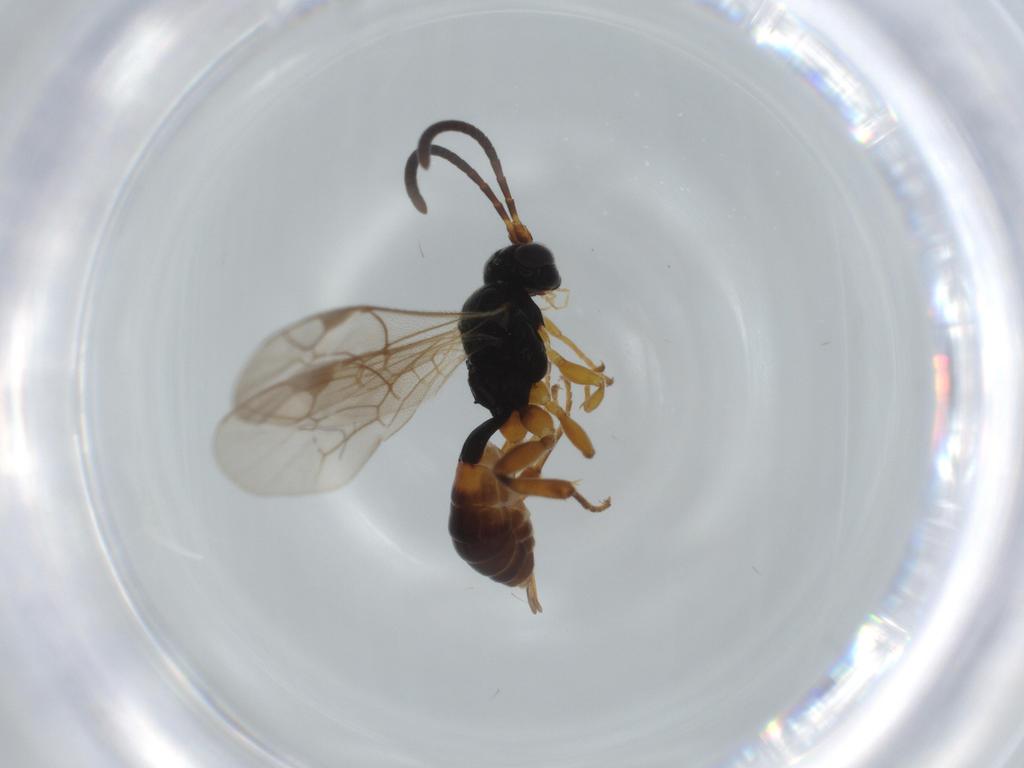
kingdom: Animalia
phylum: Arthropoda
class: Insecta
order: Hymenoptera
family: Ichneumonidae
